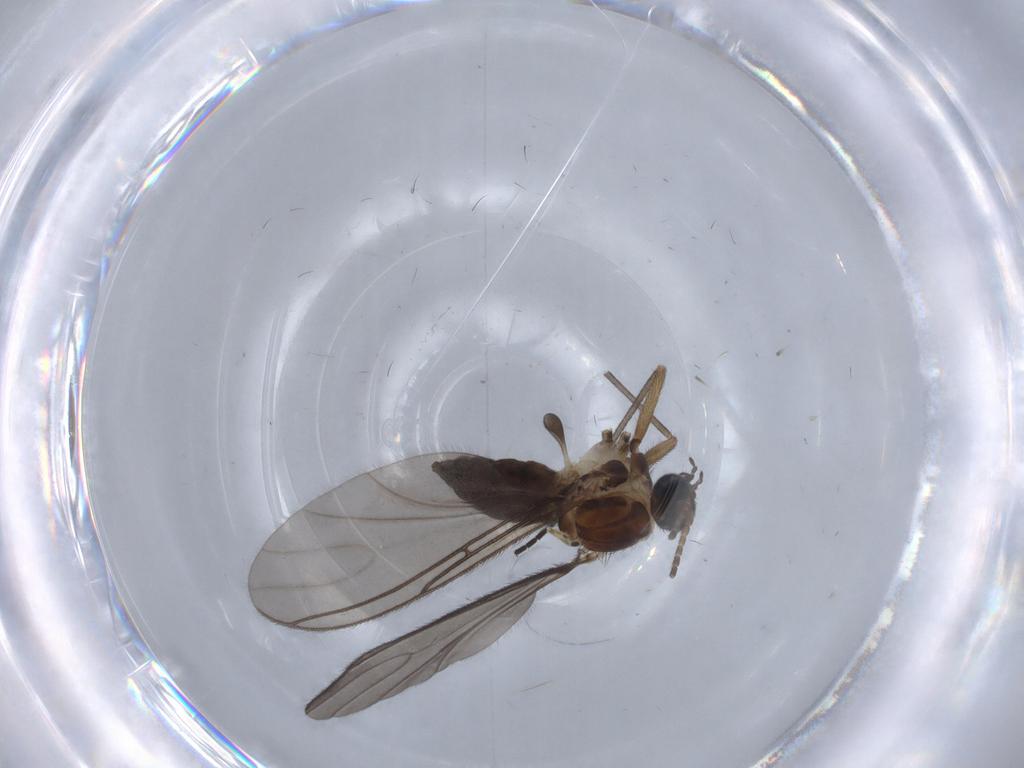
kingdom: Animalia
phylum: Arthropoda
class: Insecta
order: Diptera
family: Sciaridae
